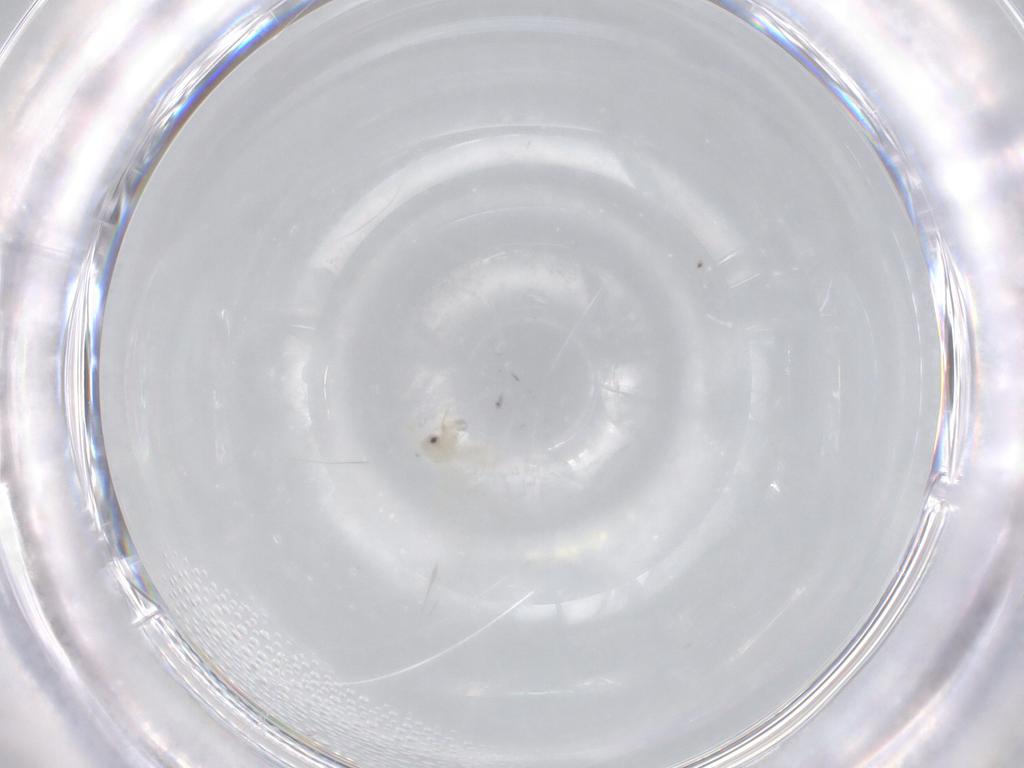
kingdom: Animalia
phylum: Arthropoda
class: Insecta
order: Hemiptera
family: Aleyrodidae
